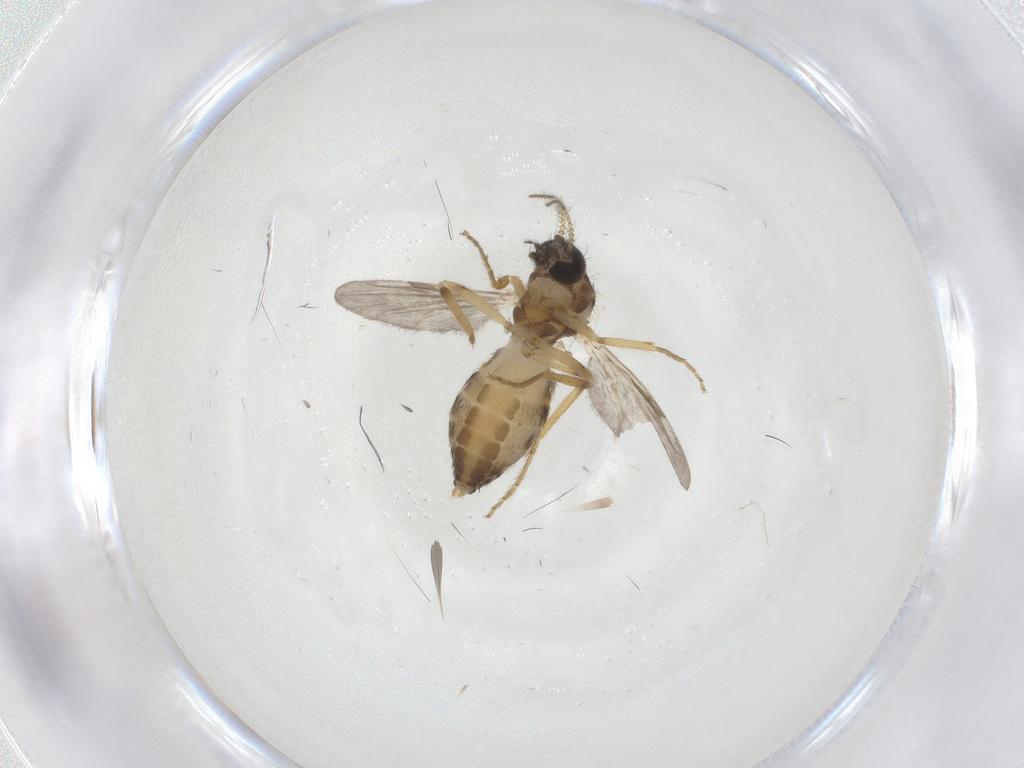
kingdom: Animalia
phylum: Arthropoda
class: Insecta
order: Diptera
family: Ceratopogonidae
